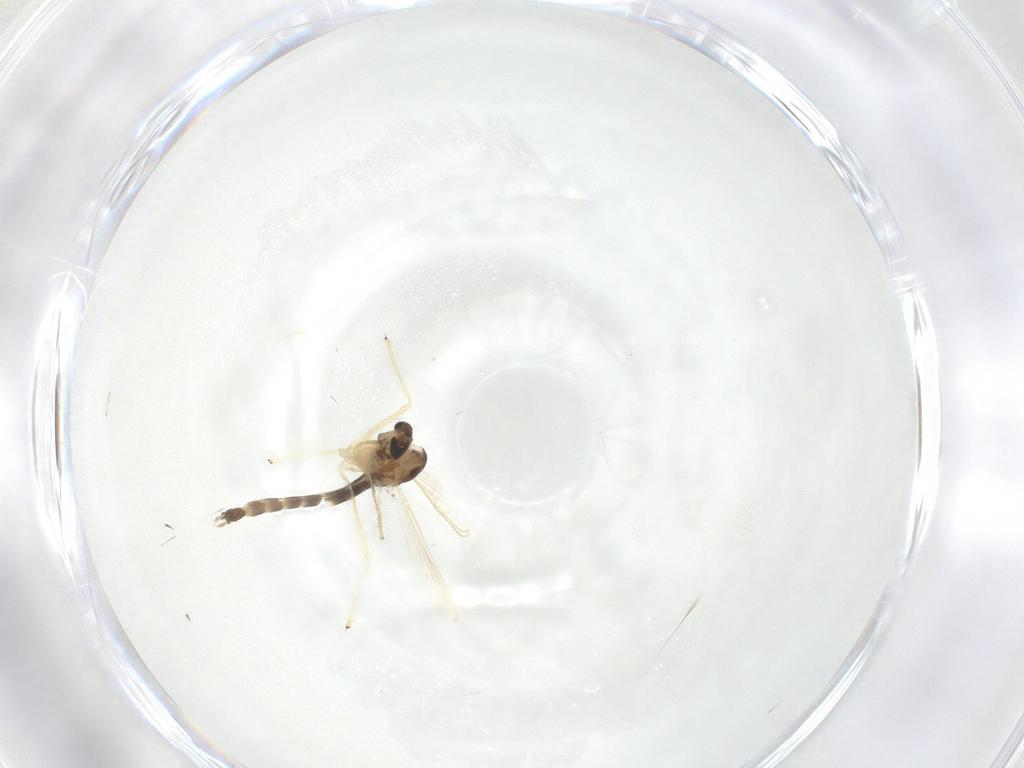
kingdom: Animalia
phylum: Arthropoda
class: Insecta
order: Diptera
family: Chironomidae
